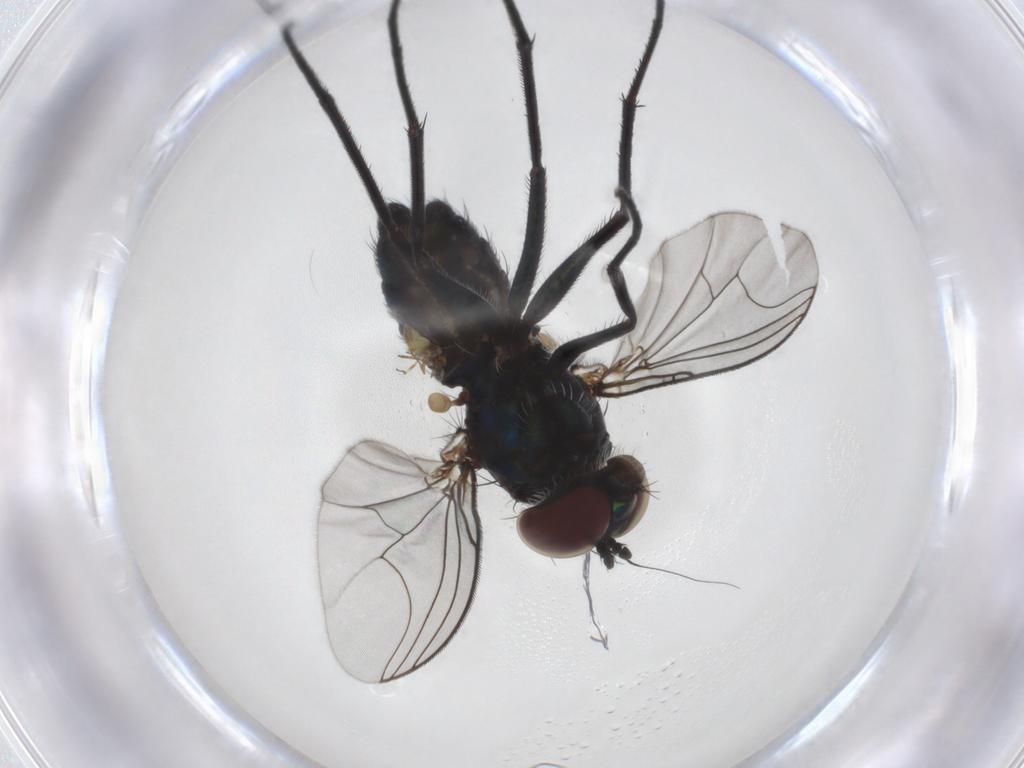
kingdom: Animalia
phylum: Arthropoda
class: Insecta
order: Diptera
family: Dolichopodidae
